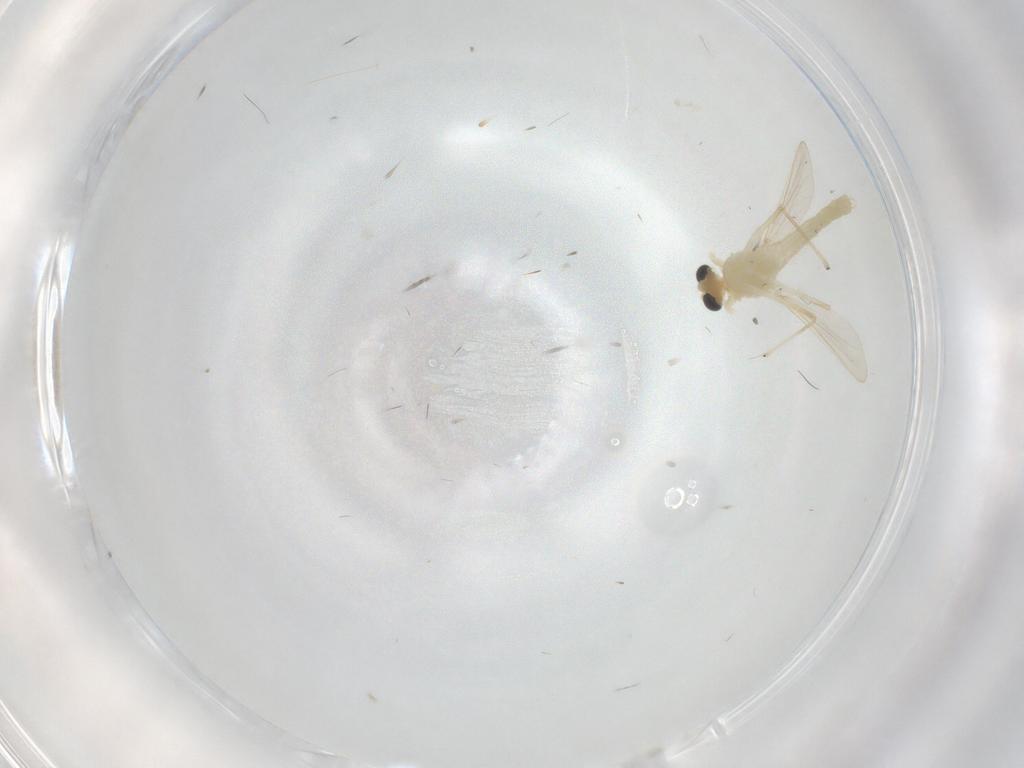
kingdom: Animalia
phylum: Arthropoda
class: Insecta
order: Diptera
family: Chironomidae
